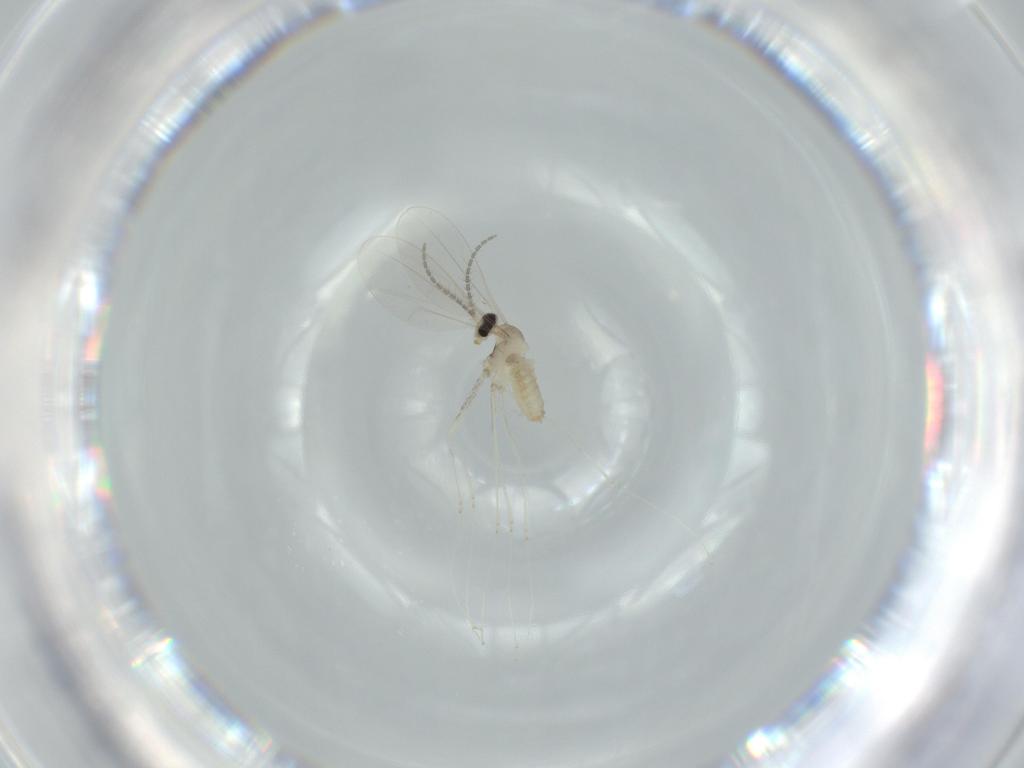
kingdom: Animalia
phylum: Arthropoda
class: Insecta
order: Diptera
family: Cecidomyiidae
